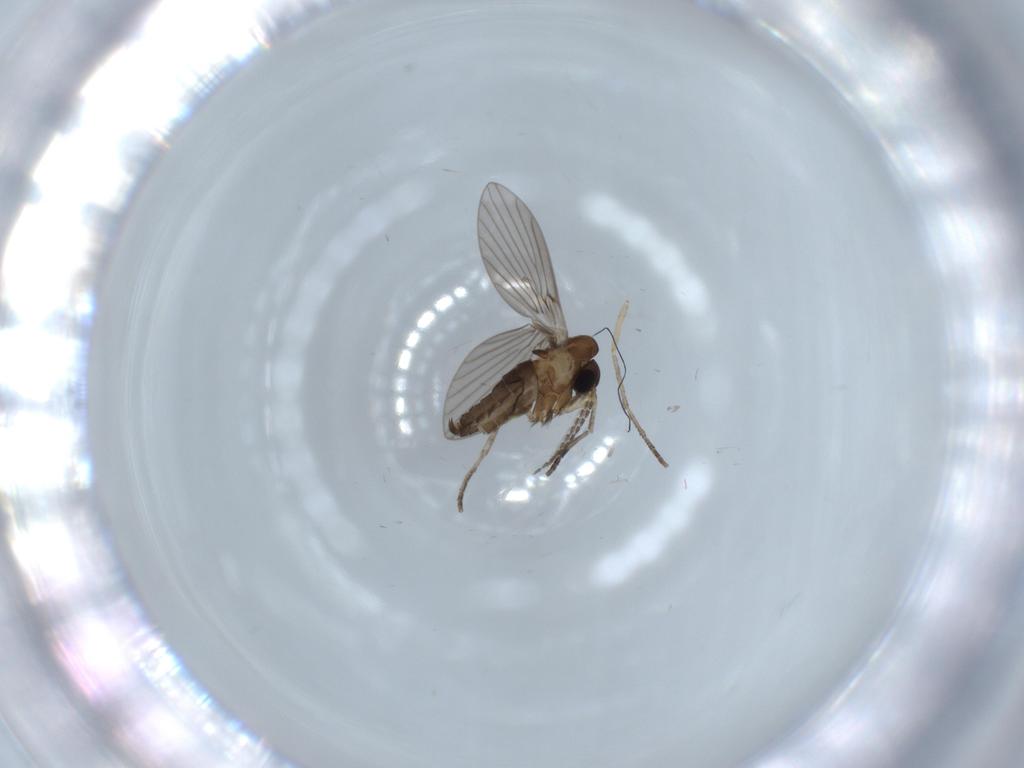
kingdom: Animalia
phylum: Arthropoda
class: Insecta
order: Diptera
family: Psychodidae
